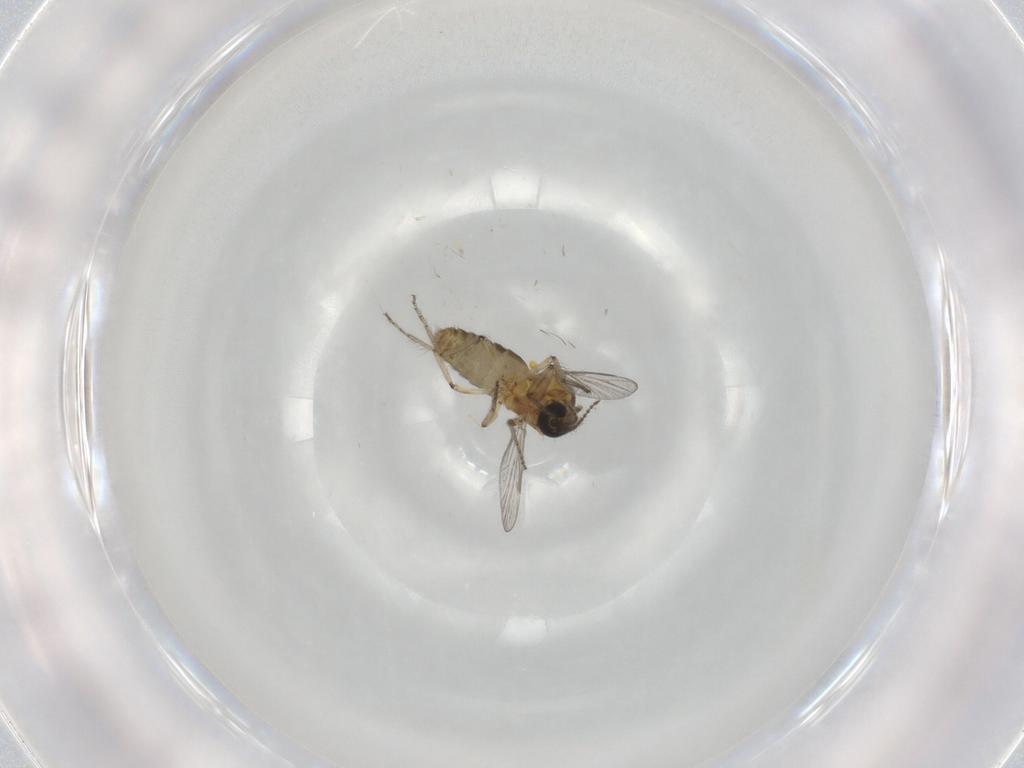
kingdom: Animalia
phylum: Arthropoda
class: Insecta
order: Diptera
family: Ceratopogonidae
